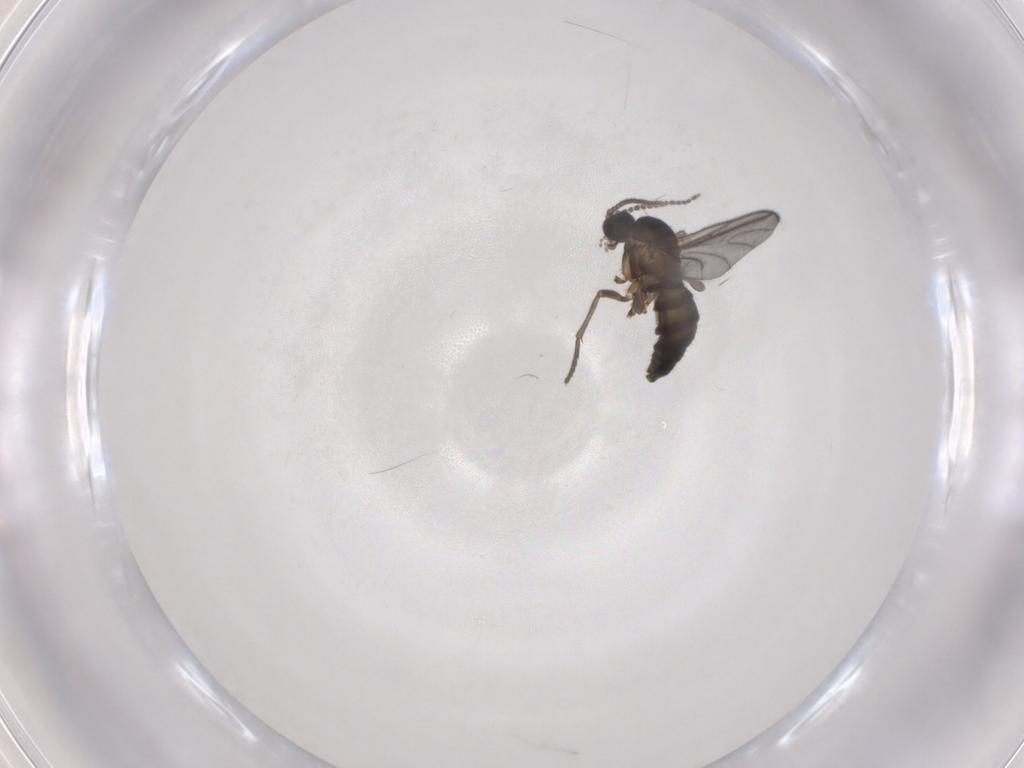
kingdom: Animalia
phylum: Arthropoda
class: Insecta
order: Diptera
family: Sciaridae
